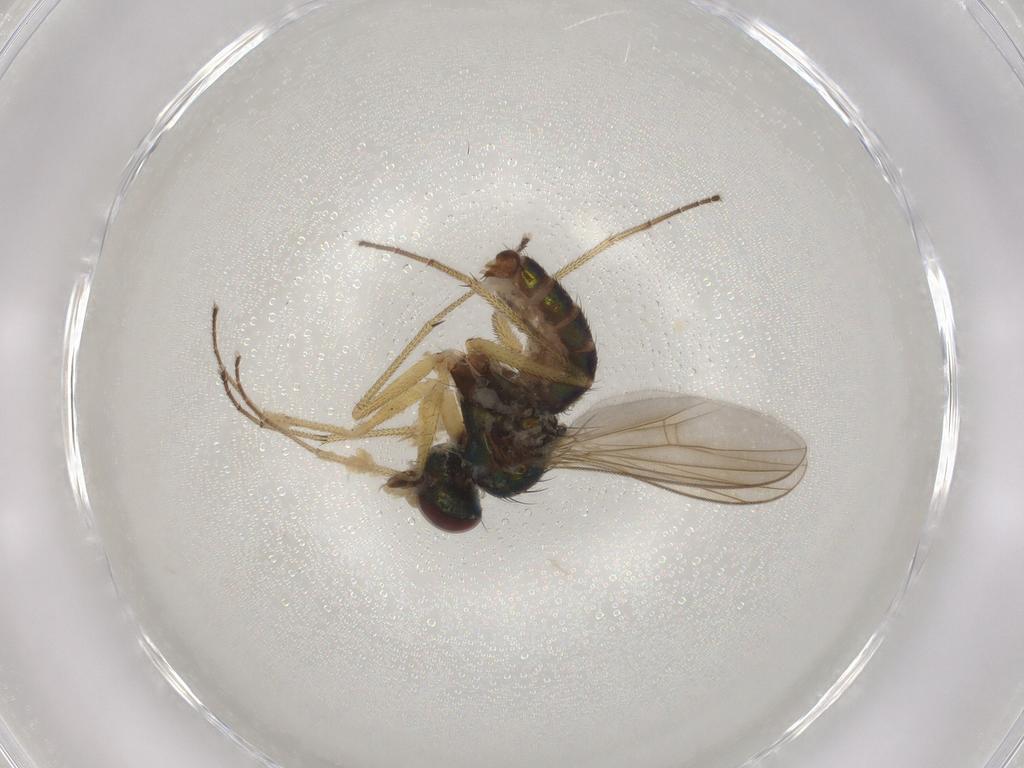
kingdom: Animalia
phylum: Arthropoda
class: Insecta
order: Diptera
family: Dolichopodidae
